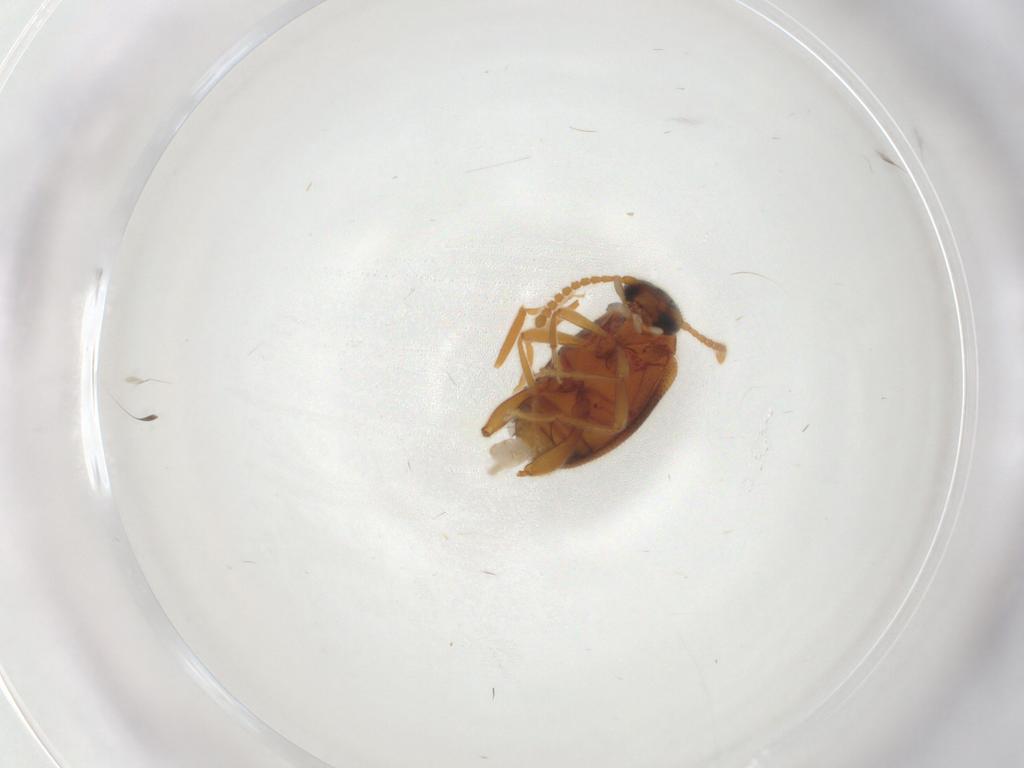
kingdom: Animalia
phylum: Arthropoda
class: Insecta
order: Coleoptera
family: Aderidae
